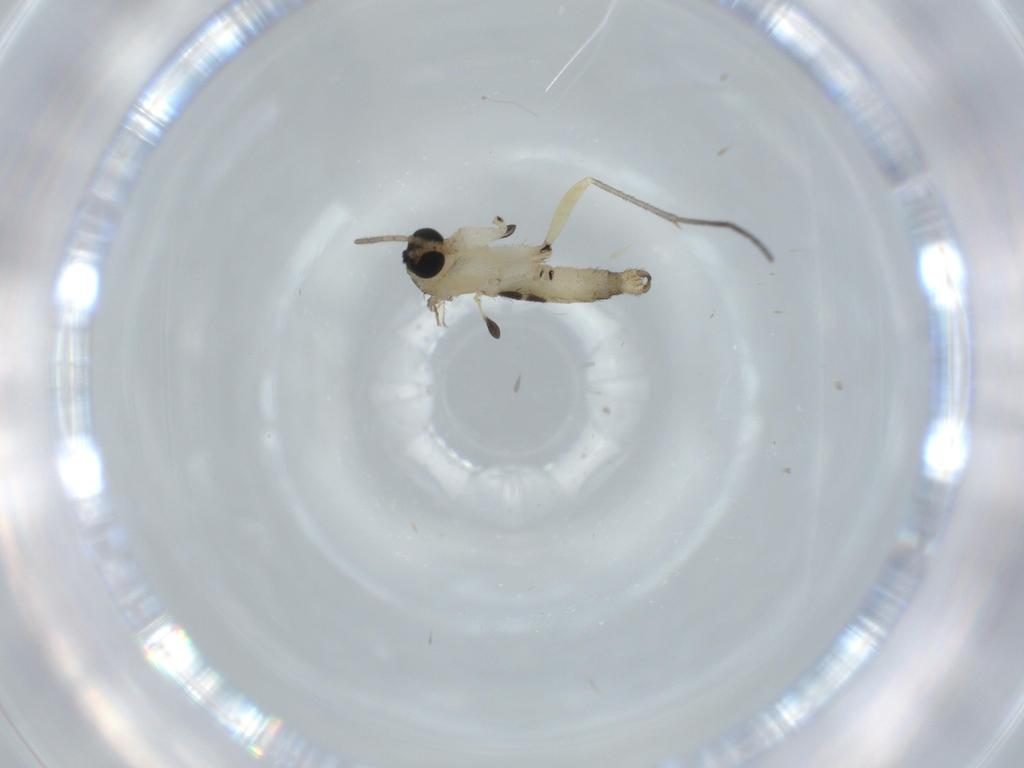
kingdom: Animalia
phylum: Arthropoda
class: Insecta
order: Diptera
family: Sciaridae
